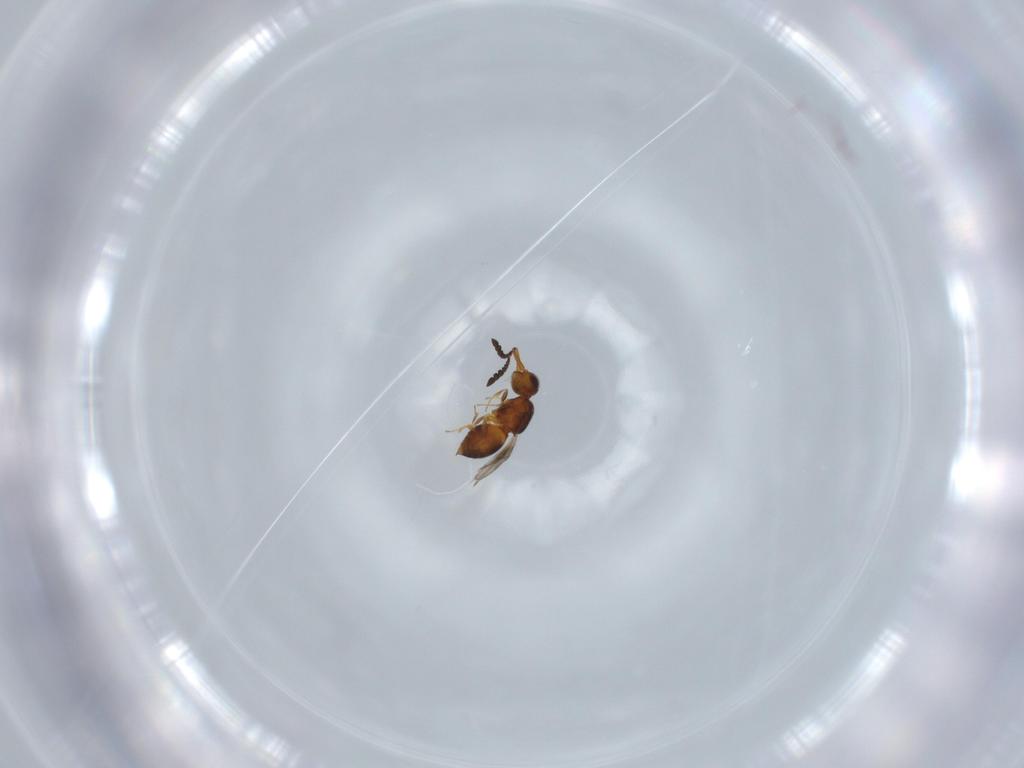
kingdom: Animalia
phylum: Arthropoda
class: Insecta
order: Hymenoptera
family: Ceraphronidae
